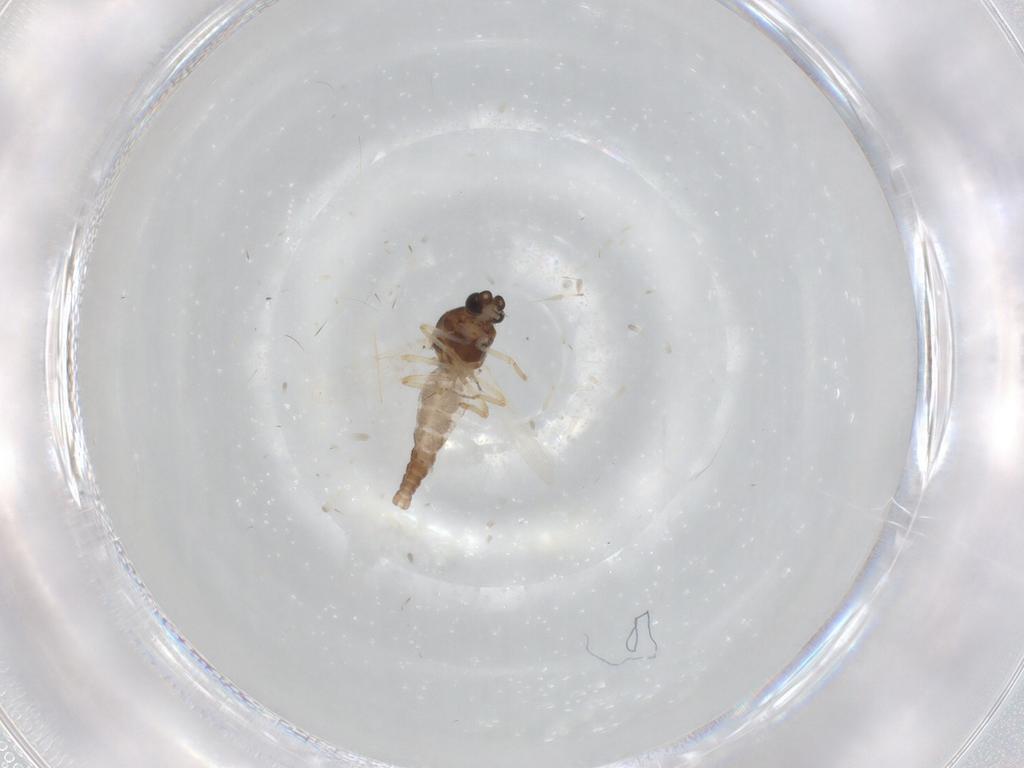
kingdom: Animalia
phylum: Arthropoda
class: Insecta
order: Diptera
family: Ceratopogonidae
